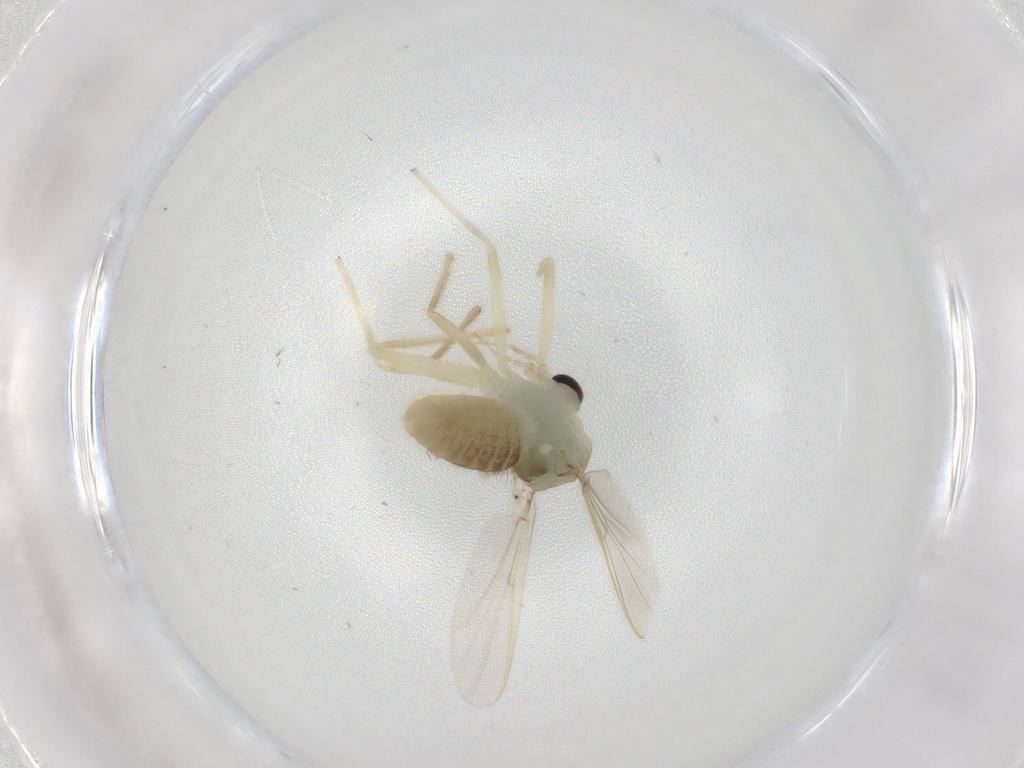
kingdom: Animalia
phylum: Arthropoda
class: Insecta
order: Diptera
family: Chironomidae
